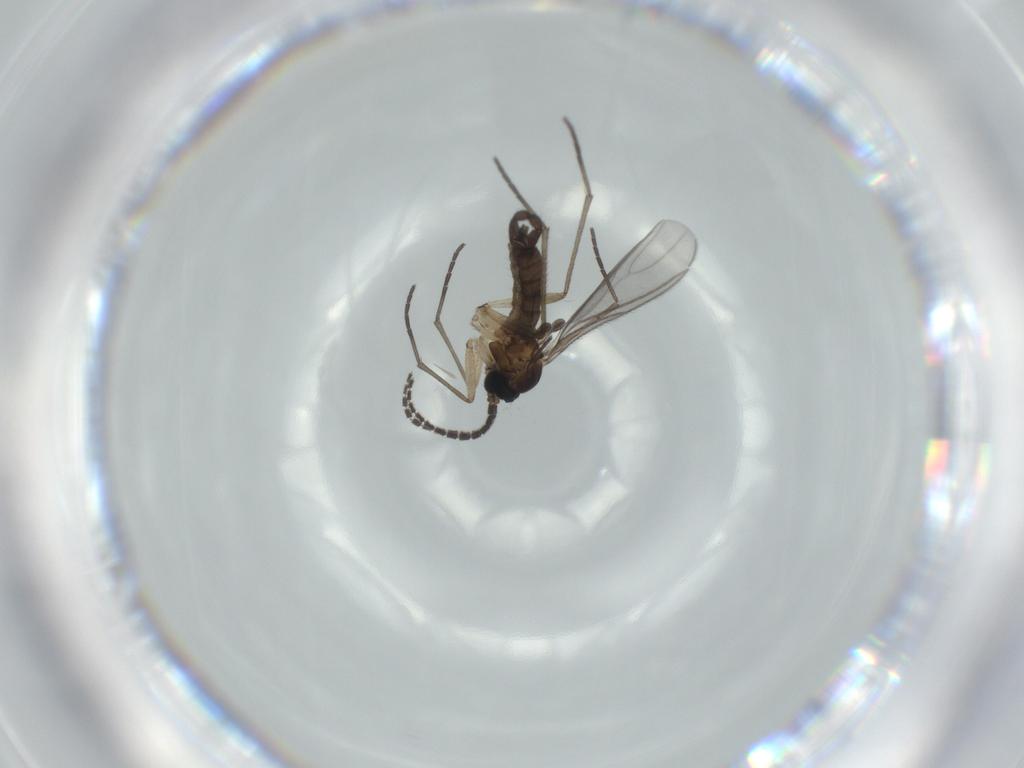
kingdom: Animalia
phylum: Arthropoda
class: Insecta
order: Diptera
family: Sciaridae
